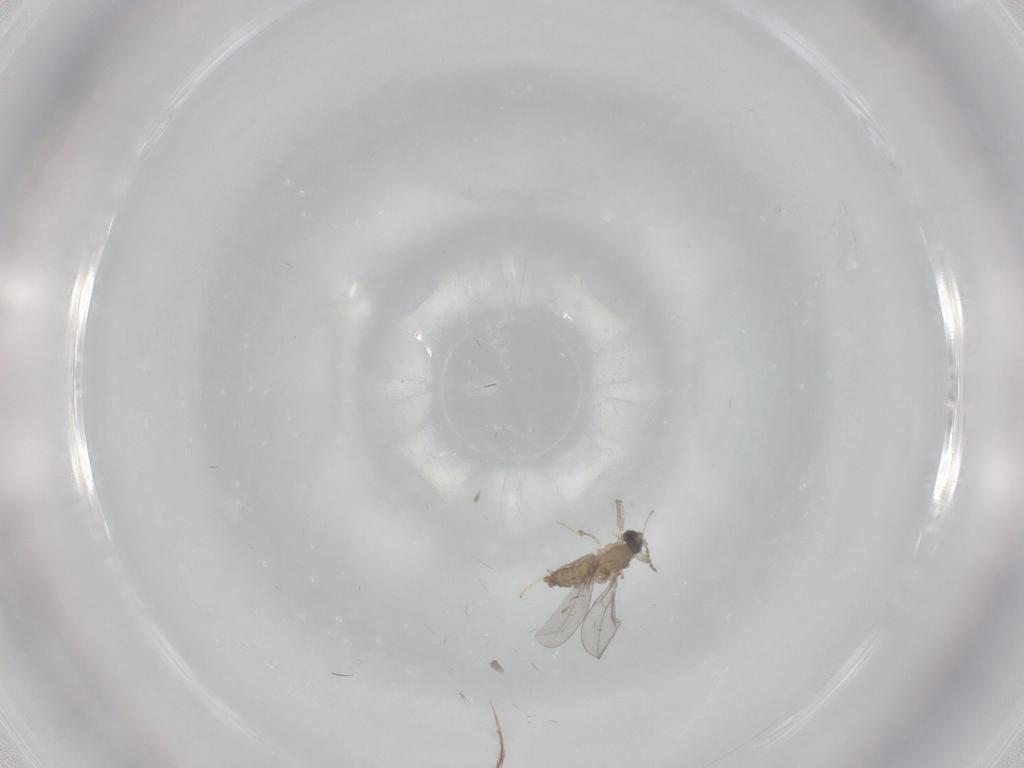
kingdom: Animalia
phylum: Arthropoda
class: Insecta
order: Diptera
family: Cecidomyiidae
